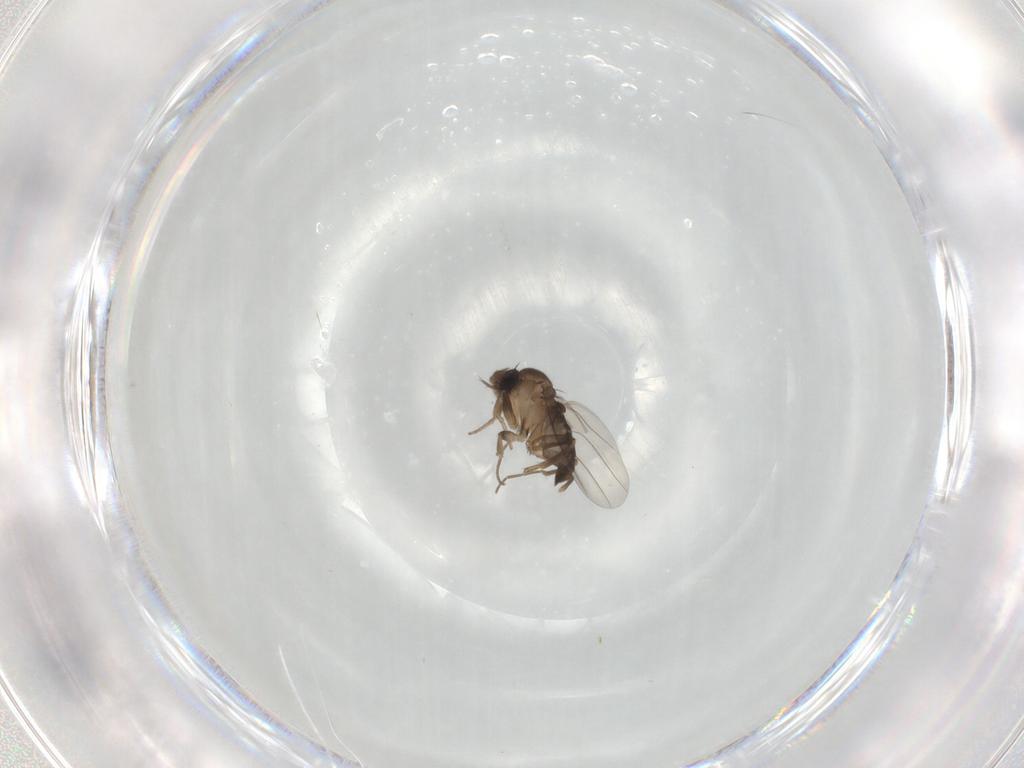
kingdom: Animalia
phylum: Arthropoda
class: Insecta
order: Diptera
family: Phoridae
